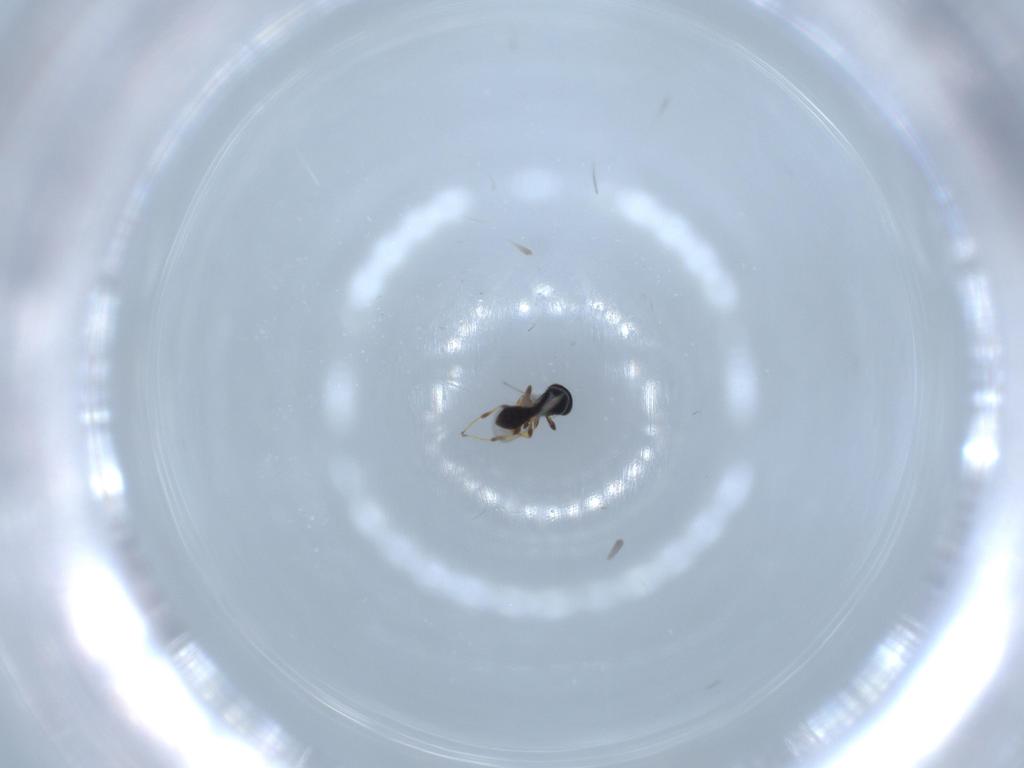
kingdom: Animalia
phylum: Arthropoda
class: Insecta
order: Hymenoptera
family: Platygastridae
